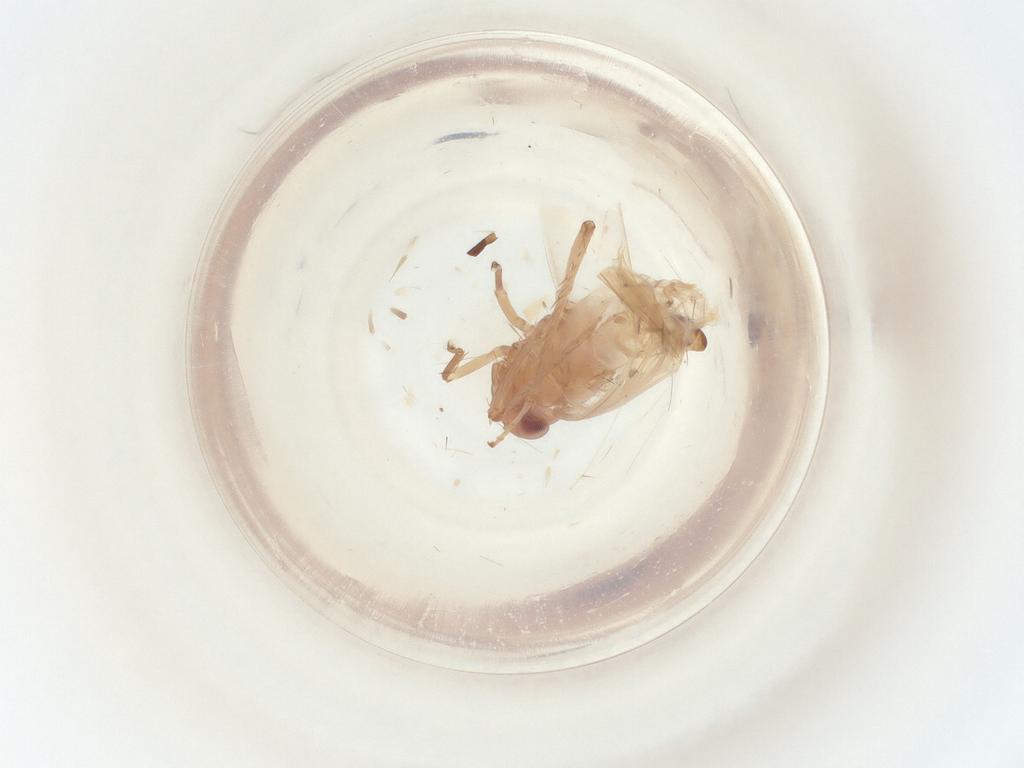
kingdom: Animalia
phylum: Arthropoda
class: Insecta
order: Hemiptera
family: Cicadellidae
